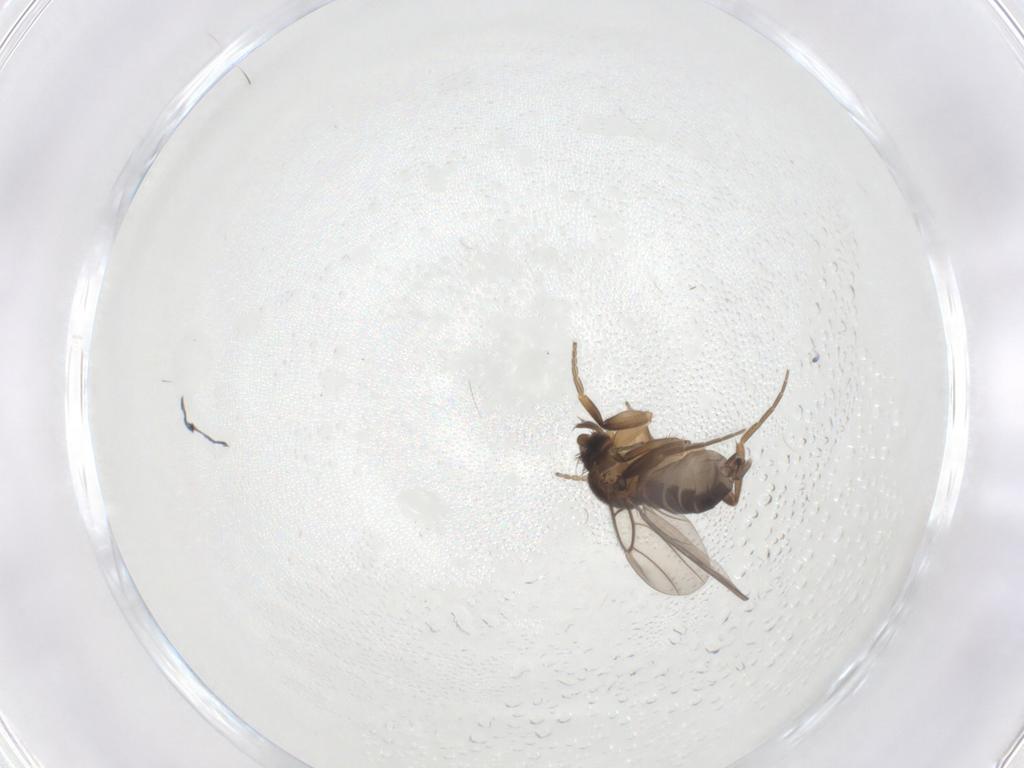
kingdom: Animalia
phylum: Arthropoda
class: Insecta
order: Diptera
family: Phoridae
